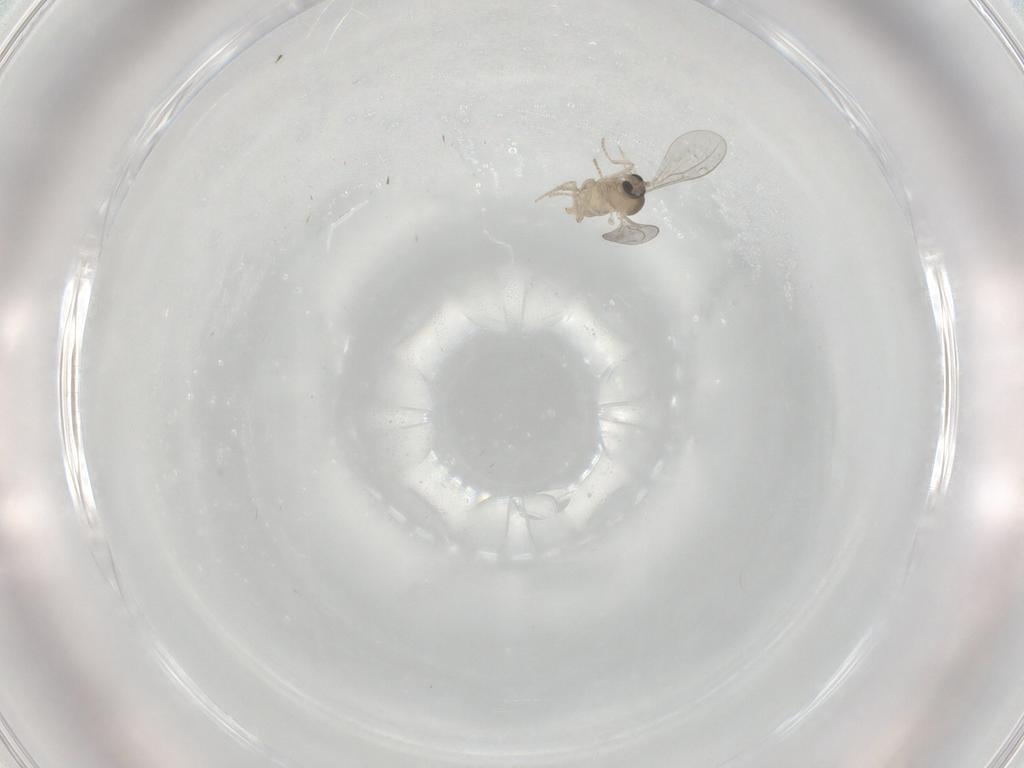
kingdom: Animalia
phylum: Arthropoda
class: Insecta
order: Diptera
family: Cecidomyiidae
